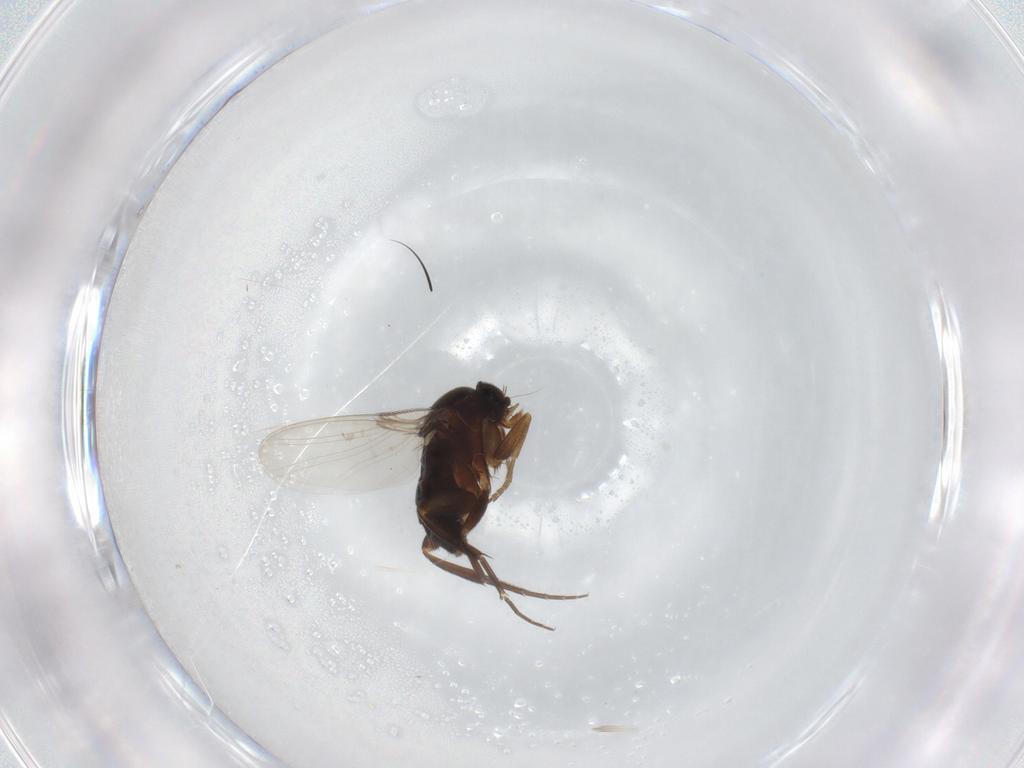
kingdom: Animalia
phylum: Arthropoda
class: Insecta
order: Diptera
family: Phoridae
